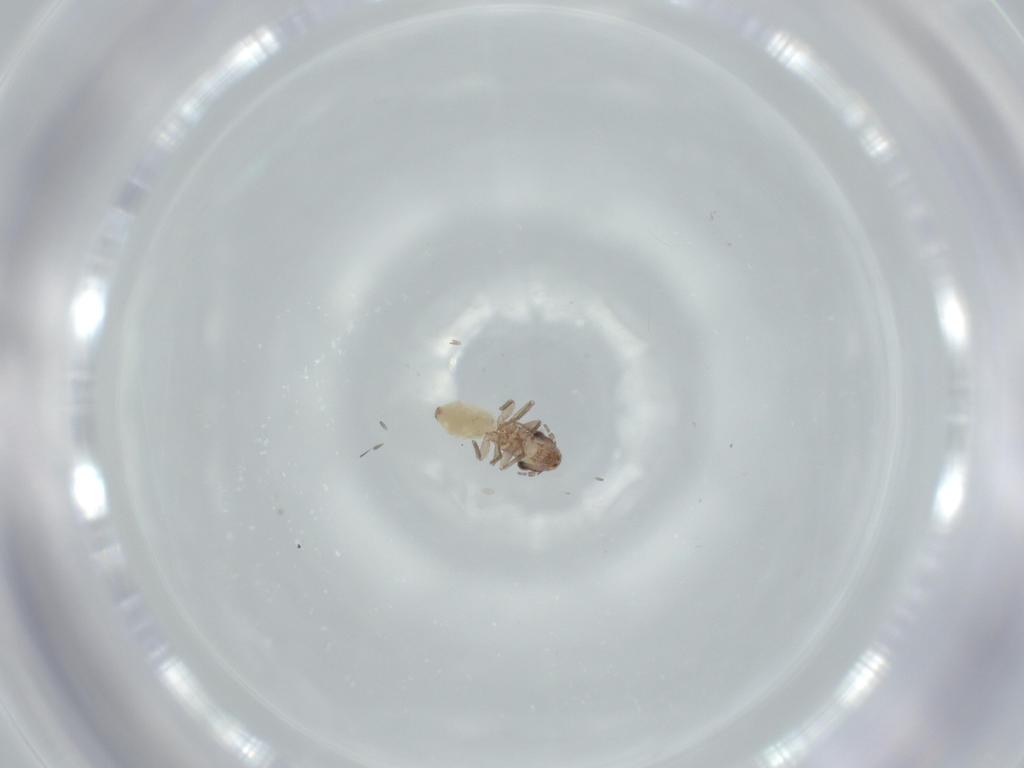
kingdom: Animalia
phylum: Arthropoda
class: Insecta
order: Psocodea
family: Lepidopsocidae
